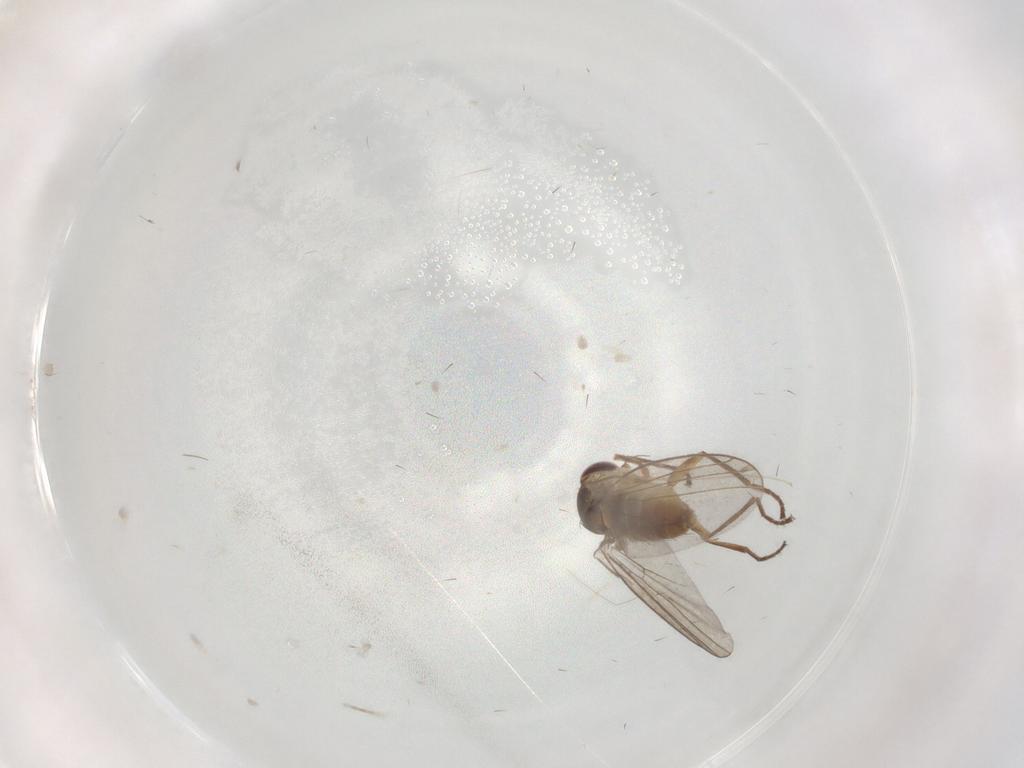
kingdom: Animalia
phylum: Arthropoda
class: Insecta
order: Diptera
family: Agromyzidae
